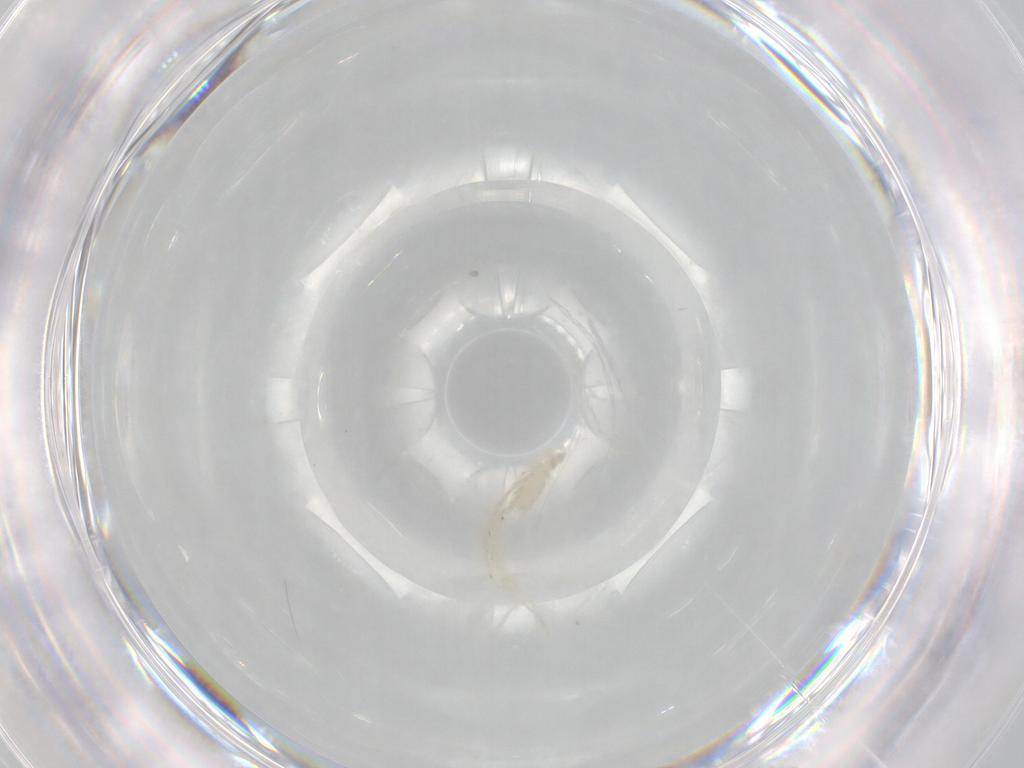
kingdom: Animalia
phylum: Arthropoda
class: Arachnida
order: Trombidiformes
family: Erythraeidae
